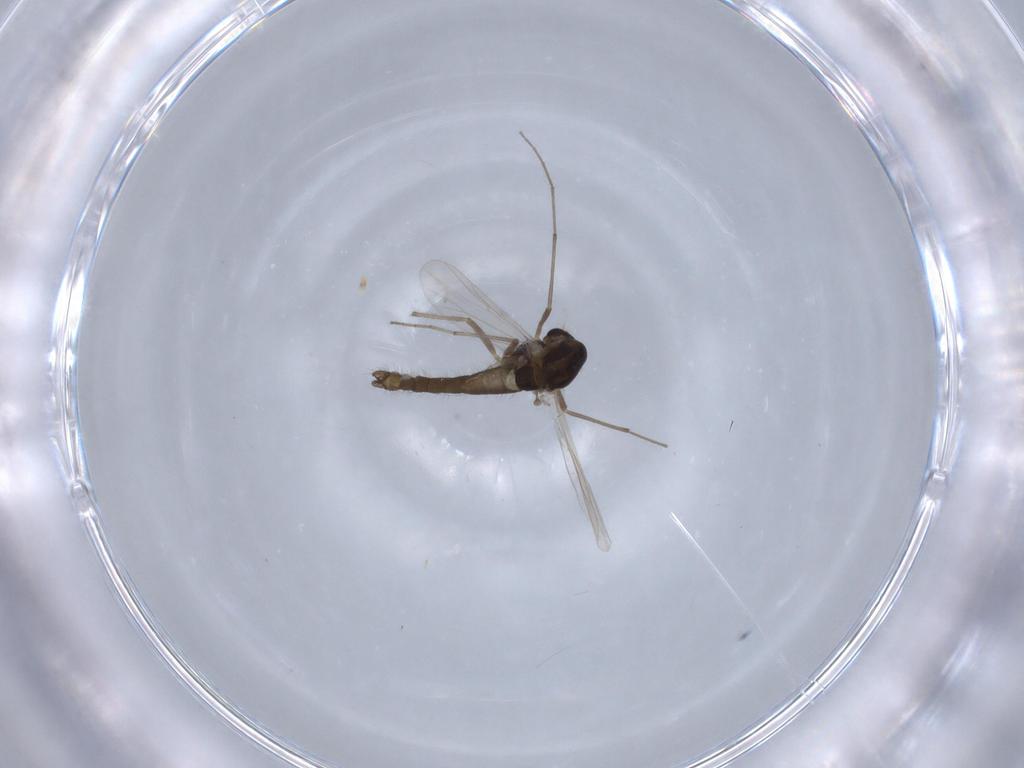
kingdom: Animalia
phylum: Arthropoda
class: Insecta
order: Diptera
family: Chironomidae
